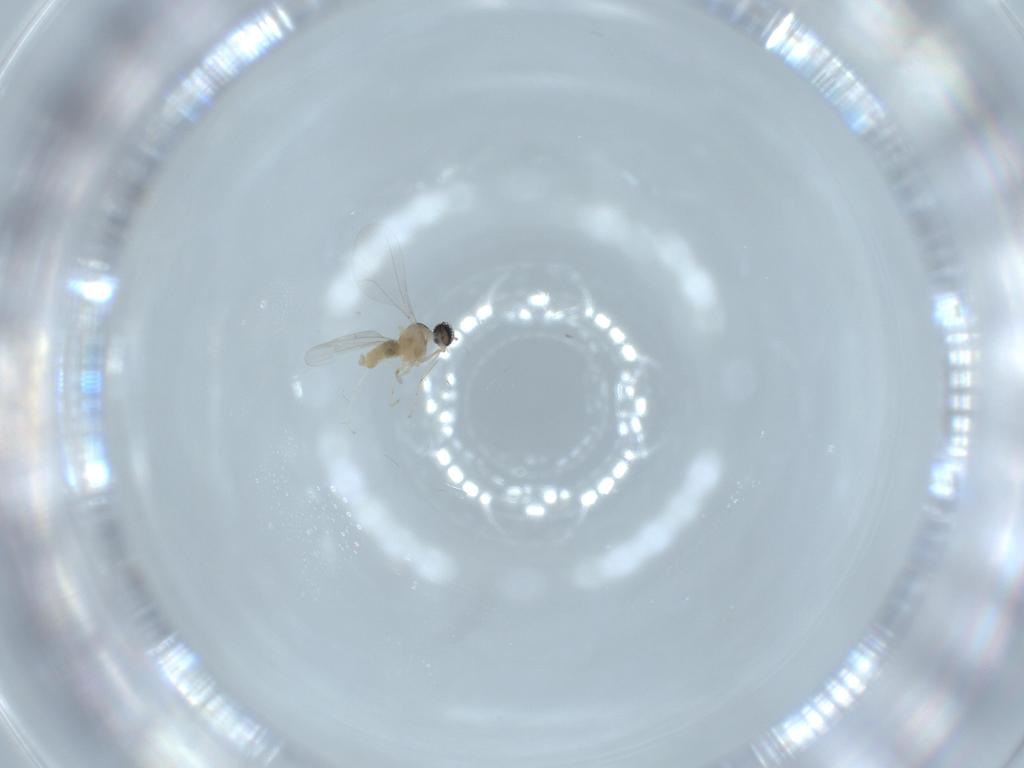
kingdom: Animalia
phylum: Arthropoda
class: Insecta
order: Diptera
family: Cecidomyiidae
